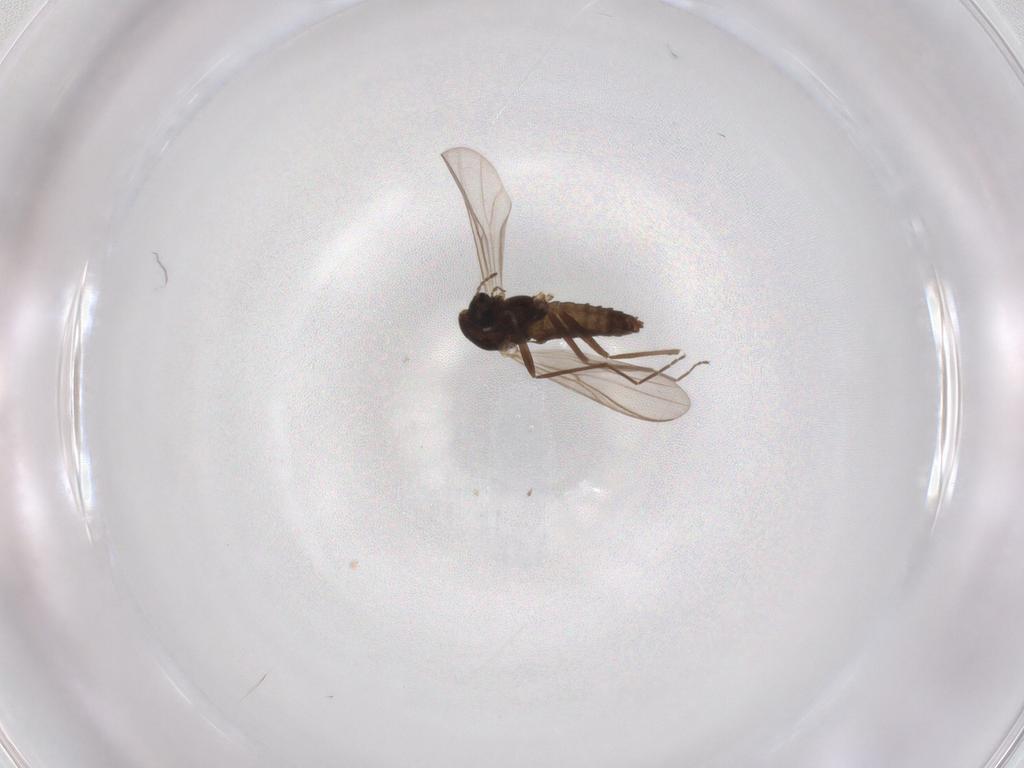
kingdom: Animalia
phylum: Arthropoda
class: Insecta
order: Diptera
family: Chironomidae
